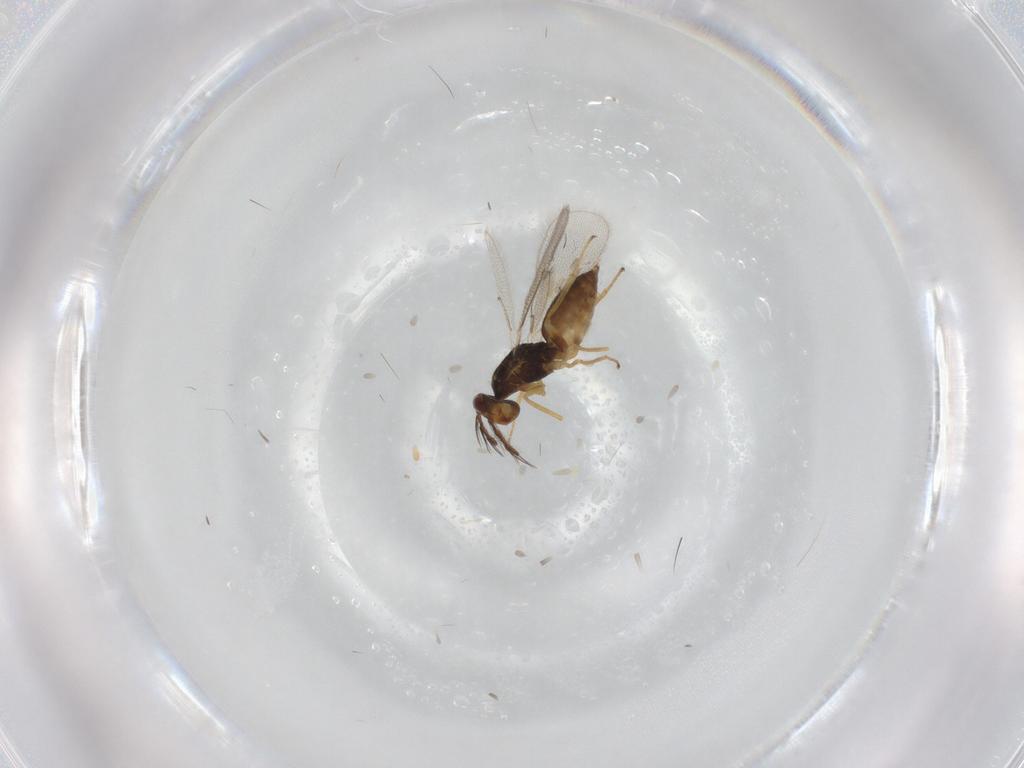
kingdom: Animalia
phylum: Arthropoda
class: Insecta
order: Hymenoptera
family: Eulophidae
